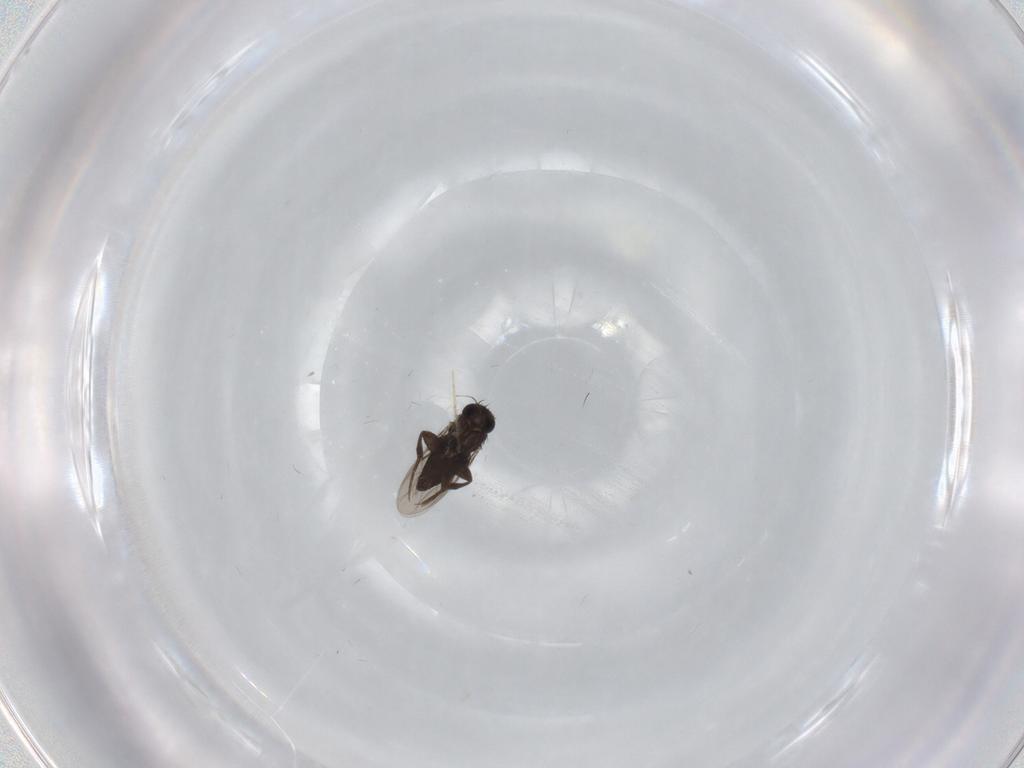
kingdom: Animalia
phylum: Arthropoda
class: Insecta
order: Diptera
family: Phoridae
